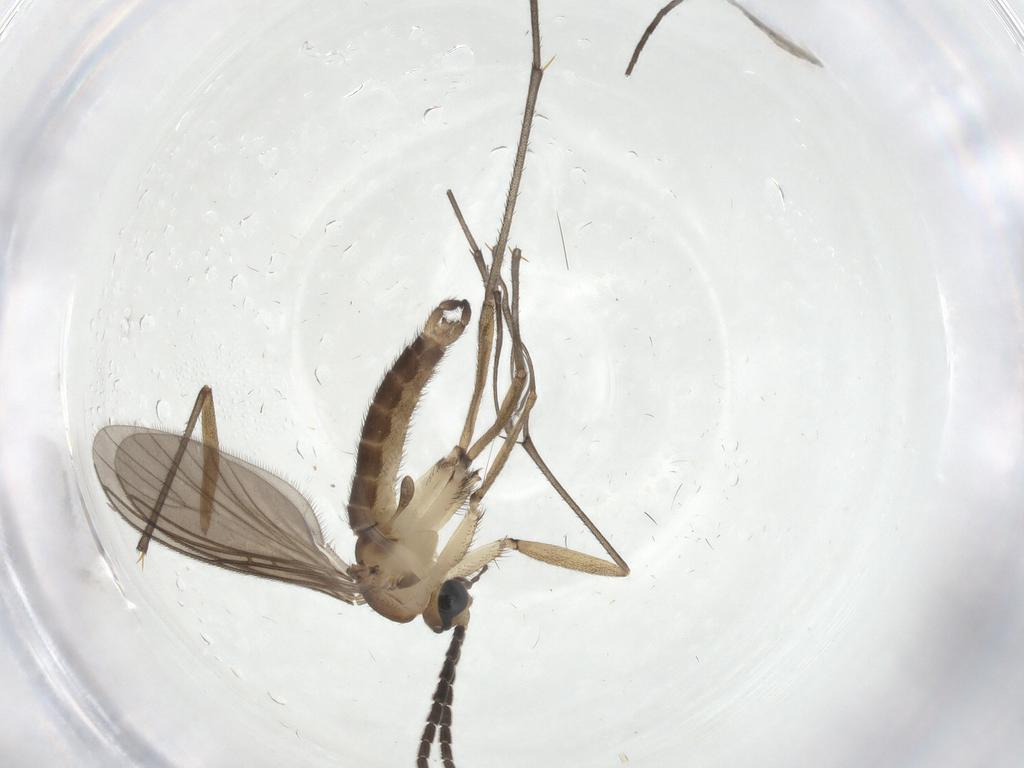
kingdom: Animalia
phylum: Arthropoda
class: Insecta
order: Diptera
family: Sciaridae
